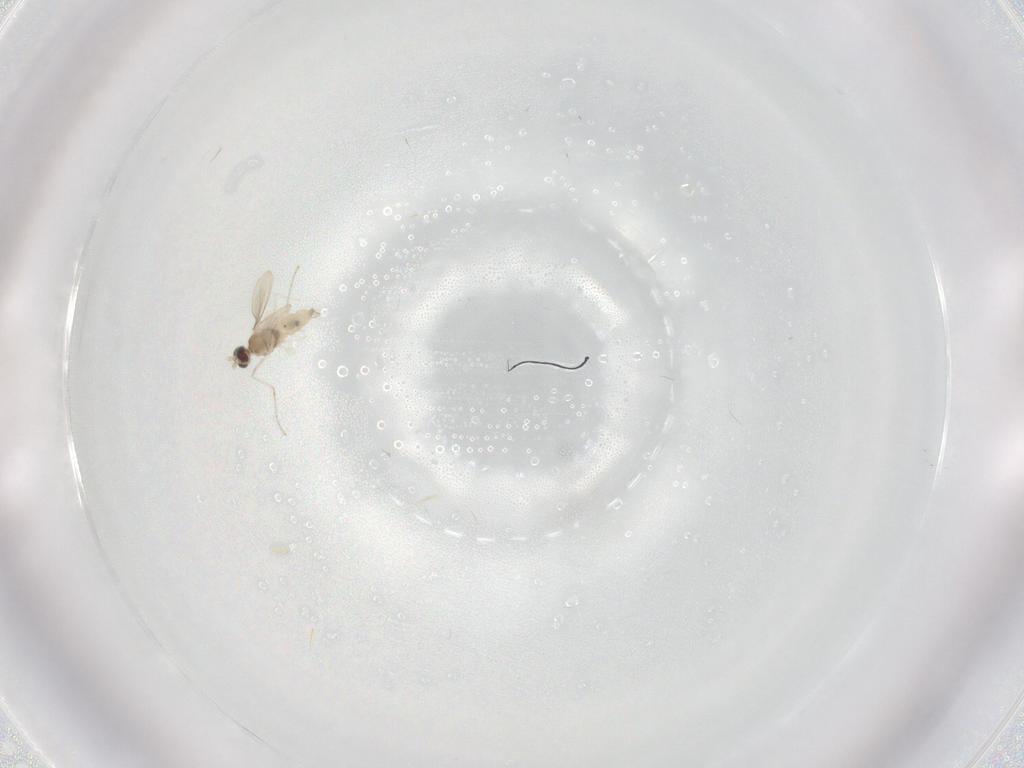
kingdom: Animalia
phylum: Arthropoda
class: Insecta
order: Diptera
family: Cecidomyiidae
